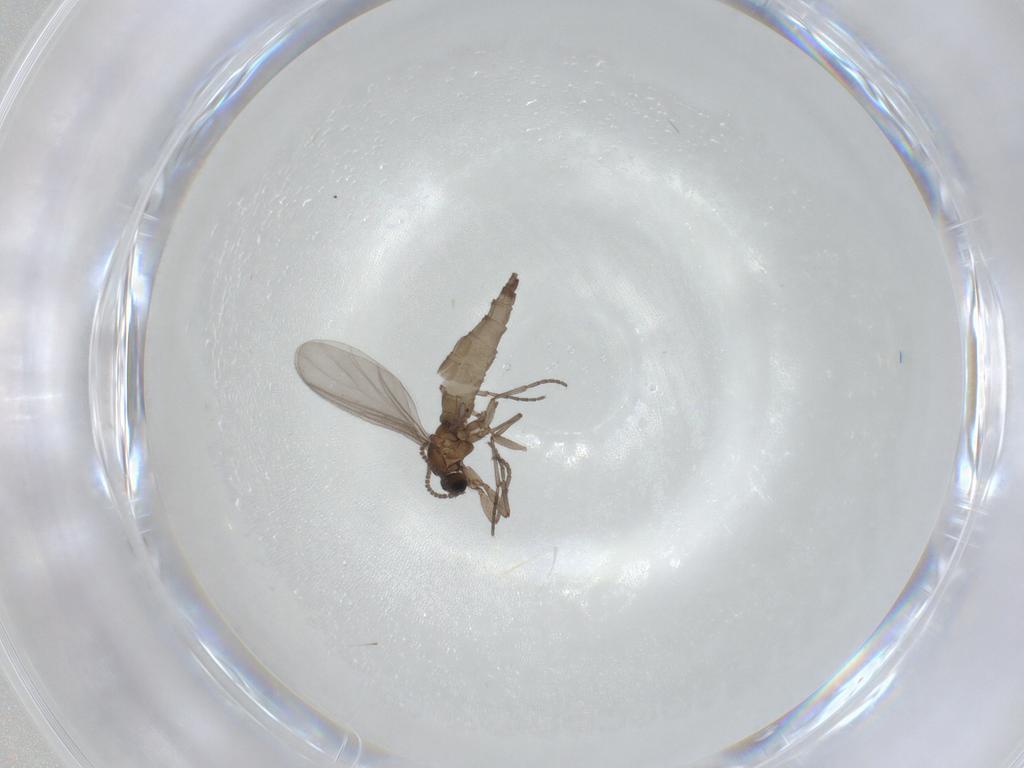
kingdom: Animalia
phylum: Arthropoda
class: Insecta
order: Diptera
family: Sciaridae
